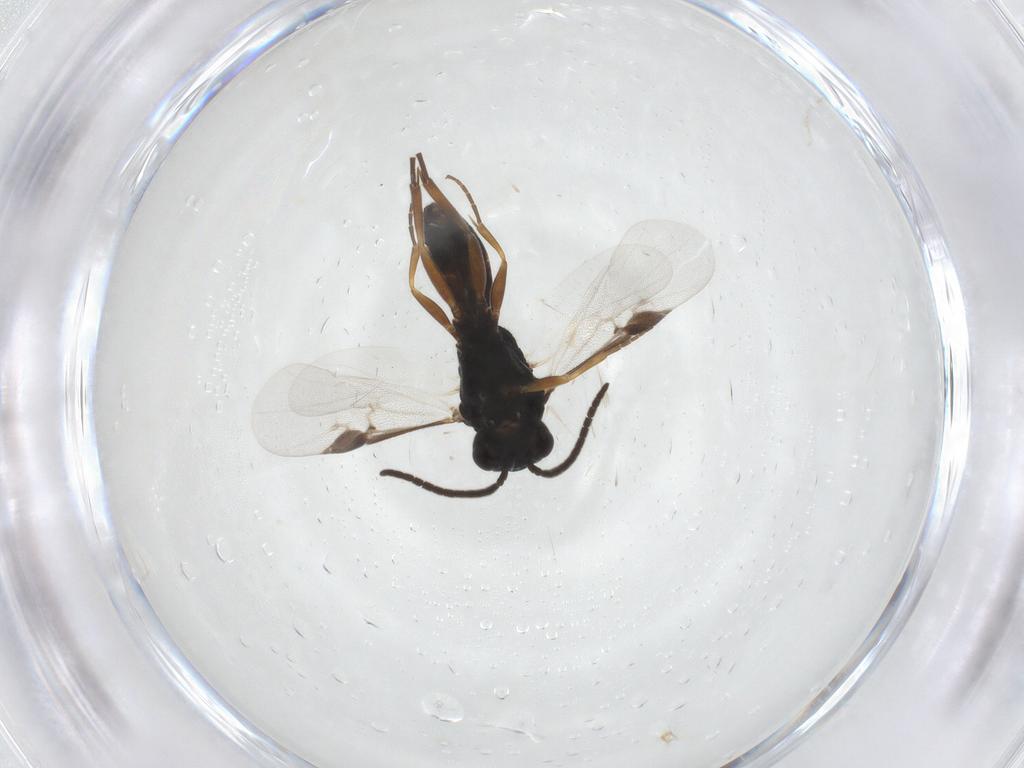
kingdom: Animalia
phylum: Arthropoda
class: Insecta
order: Hymenoptera
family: Braconidae
